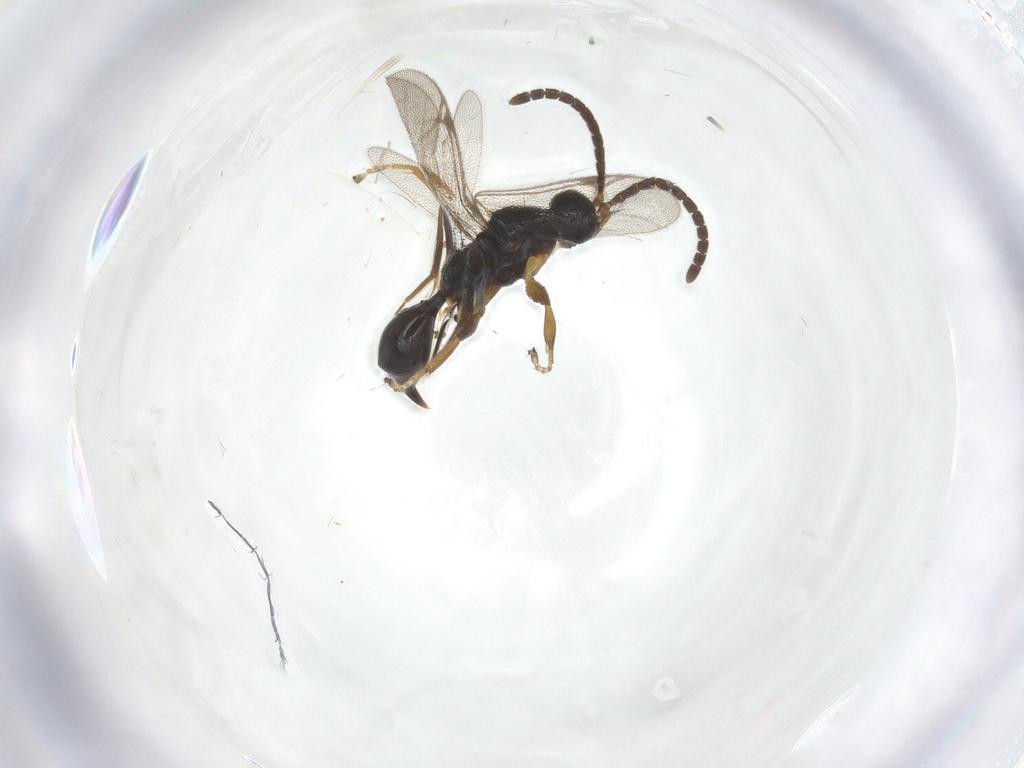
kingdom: Animalia
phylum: Arthropoda
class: Insecta
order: Hymenoptera
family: Proctotrupidae
